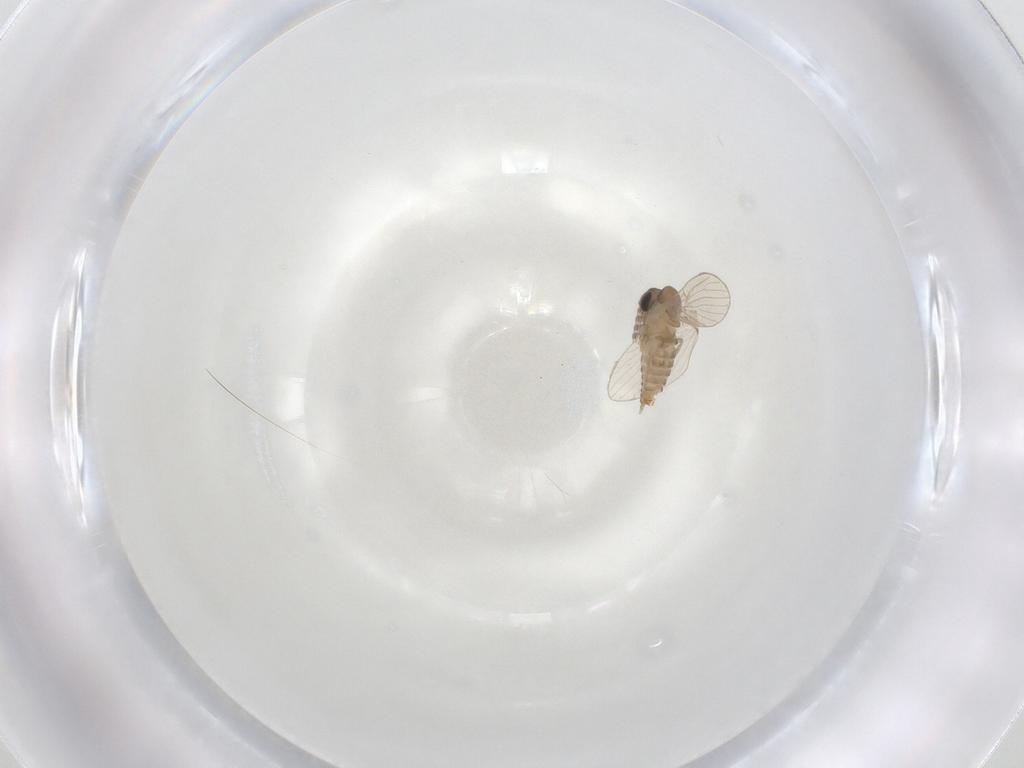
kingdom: Animalia
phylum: Arthropoda
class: Insecta
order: Diptera
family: Psychodidae
